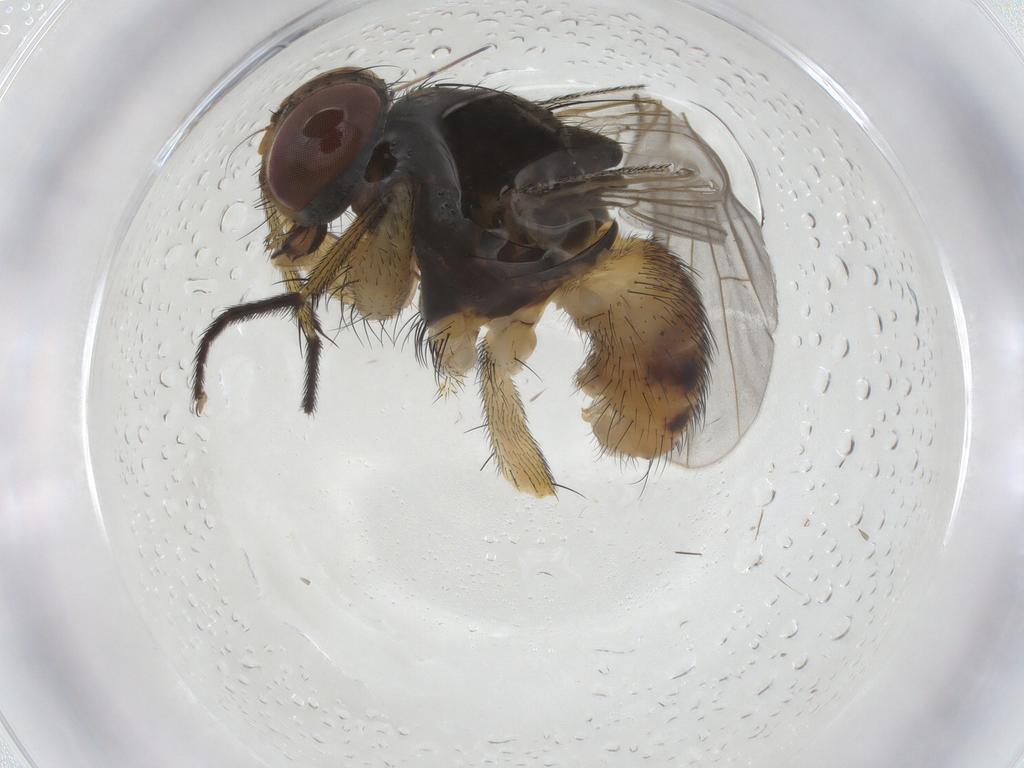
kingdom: Animalia
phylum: Arthropoda
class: Insecta
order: Diptera
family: Muscidae
